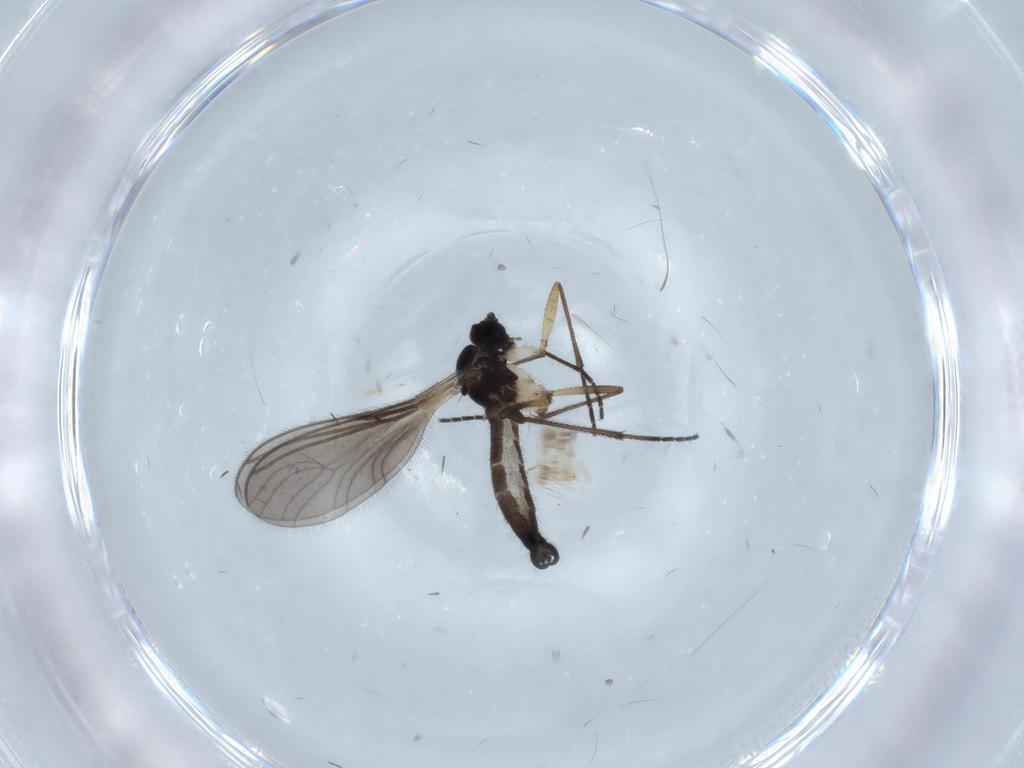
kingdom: Animalia
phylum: Arthropoda
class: Insecta
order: Diptera
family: Sciaridae
